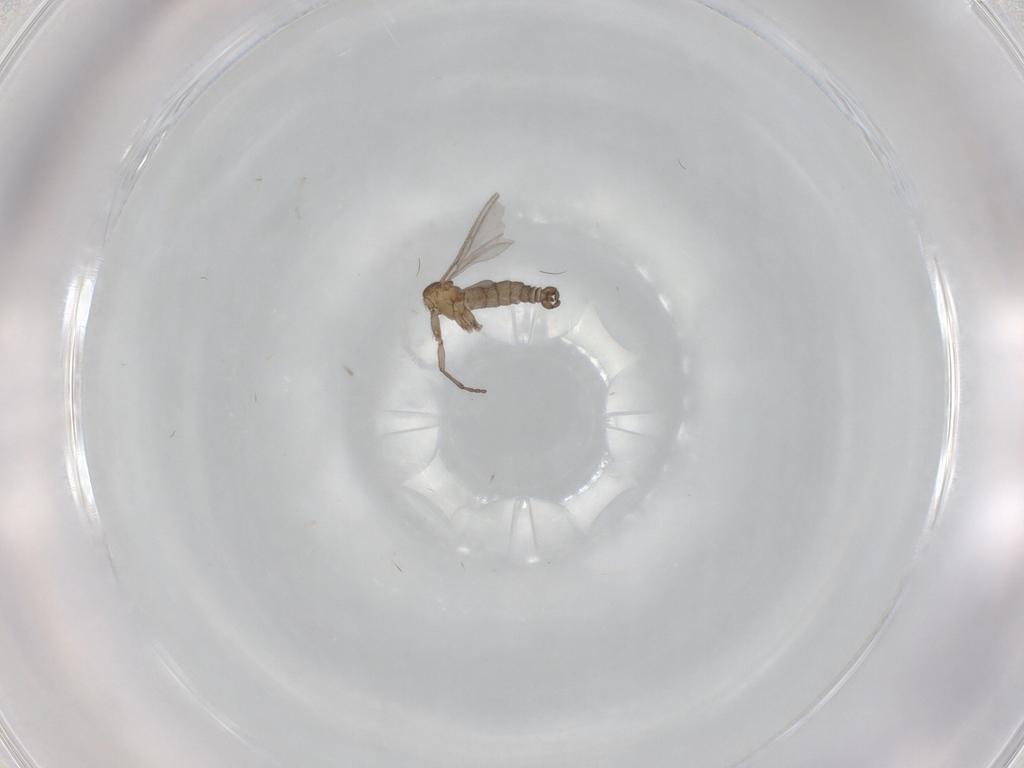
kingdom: Animalia
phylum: Arthropoda
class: Insecta
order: Diptera
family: Sciaridae
